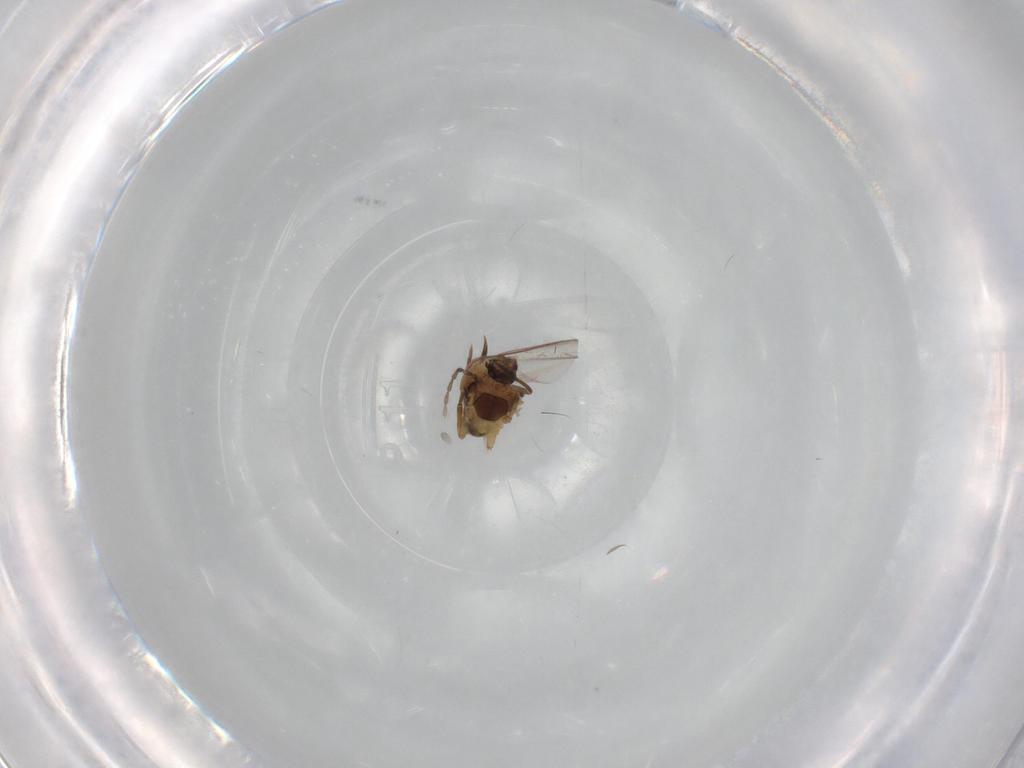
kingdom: Animalia
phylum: Arthropoda
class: Insecta
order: Hemiptera
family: Coccidae
